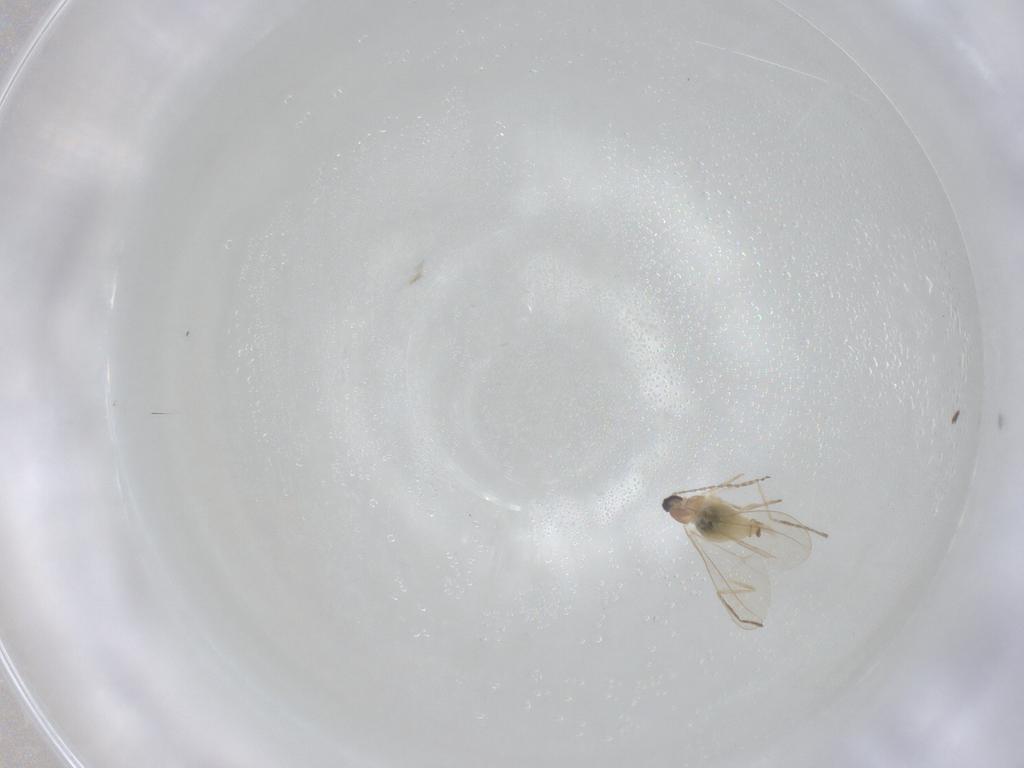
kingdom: Animalia
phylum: Arthropoda
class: Insecta
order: Diptera
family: Cecidomyiidae
